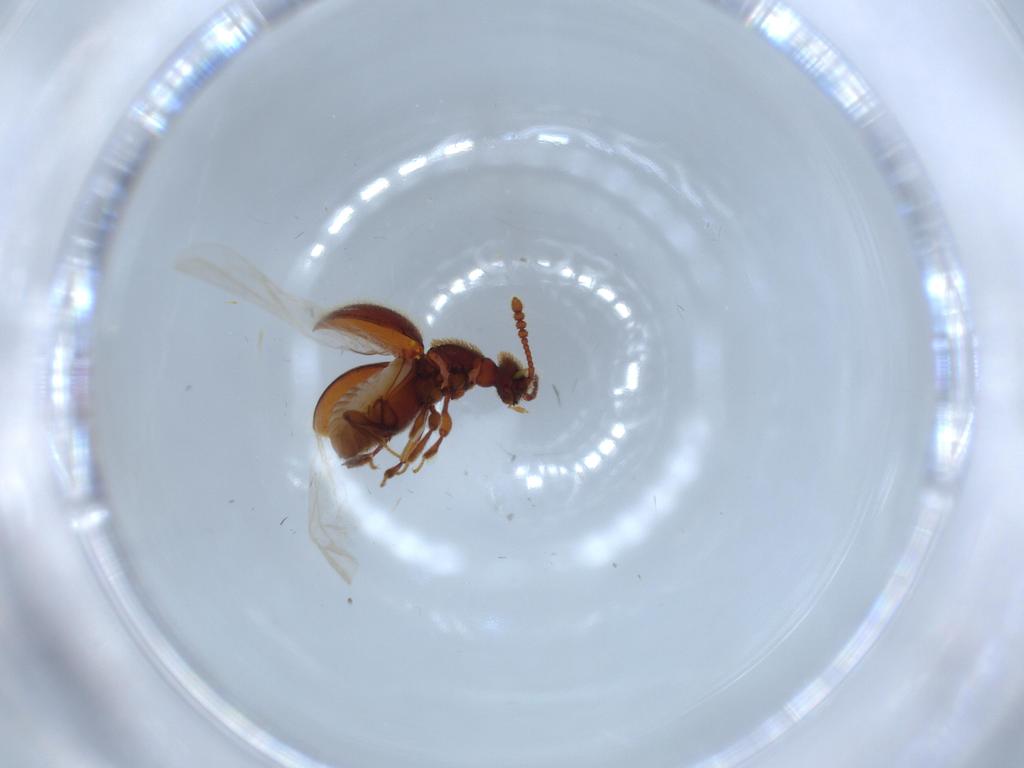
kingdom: Animalia
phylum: Arthropoda
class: Insecta
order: Coleoptera
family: Staphylinidae
